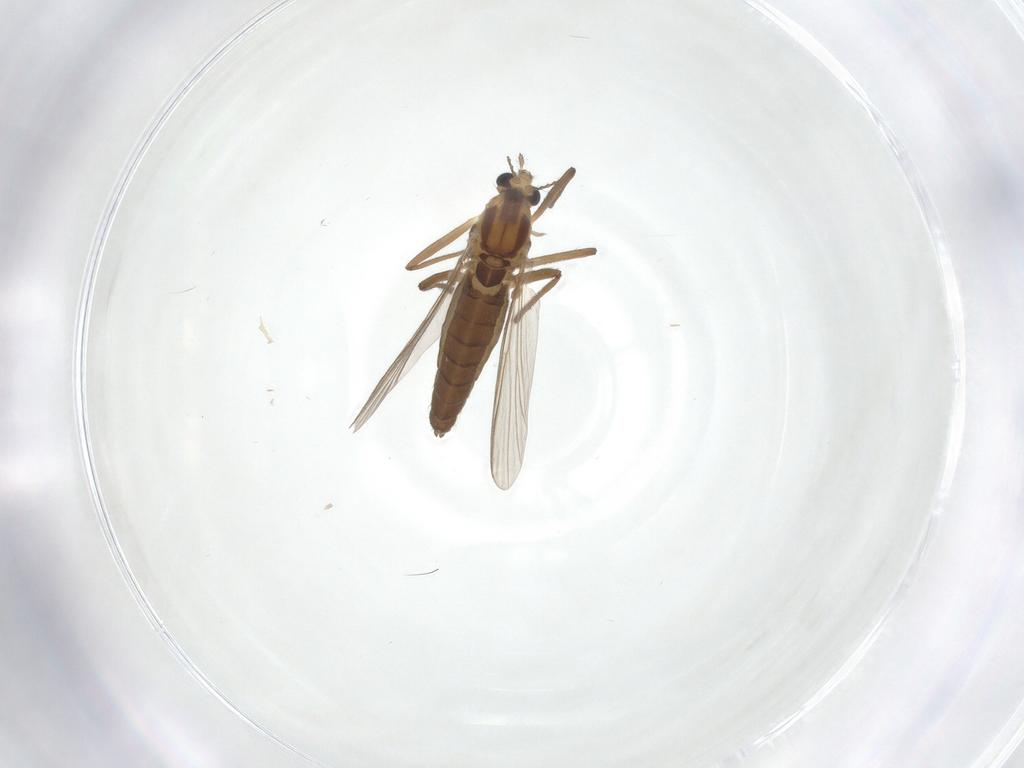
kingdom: Animalia
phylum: Arthropoda
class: Insecta
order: Diptera
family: Chironomidae
